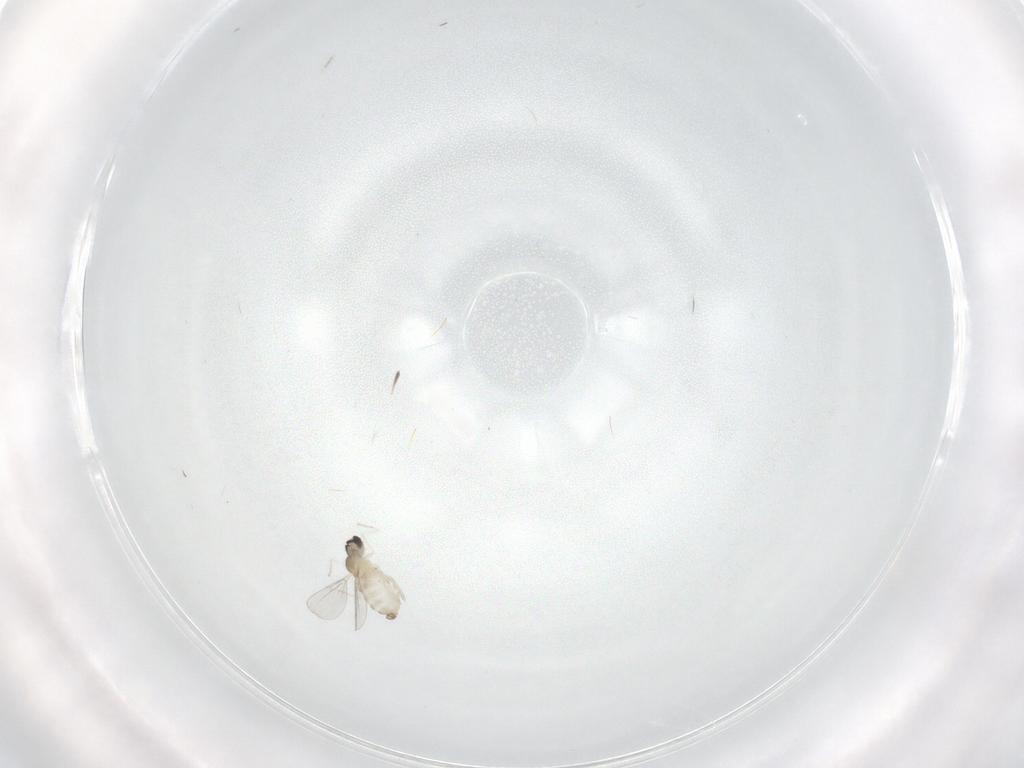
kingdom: Animalia
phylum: Arthropoda
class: Insecta
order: Diptera
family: Cecidomyiidae
